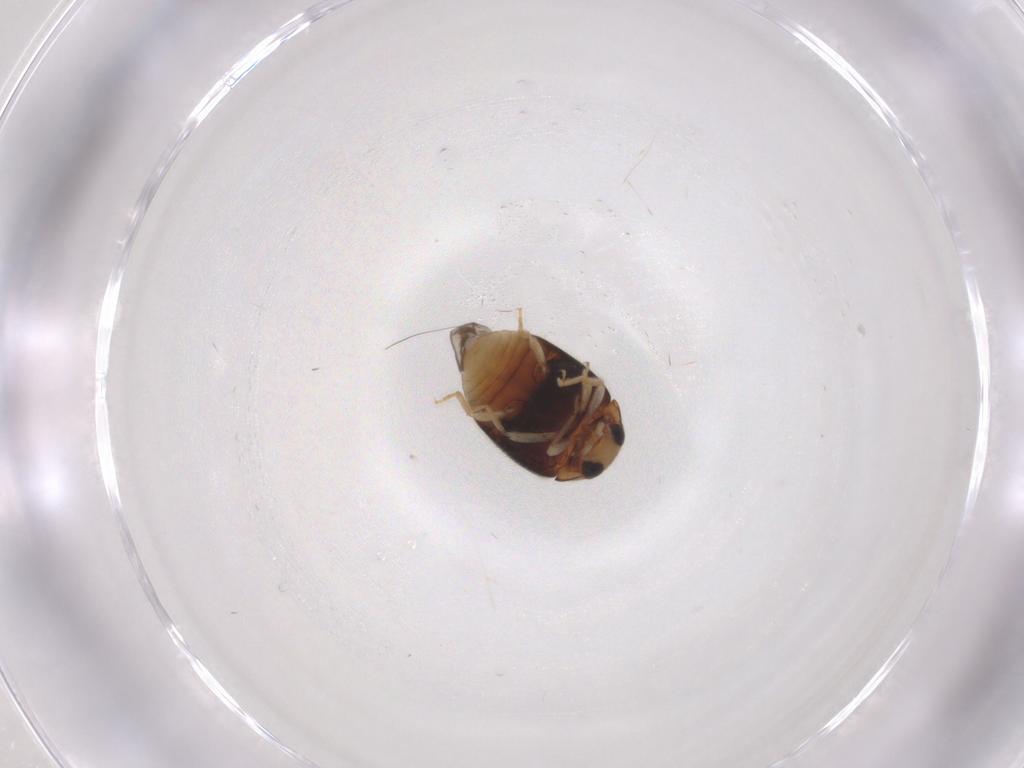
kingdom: Animalia
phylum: Arthropoda
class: Insecta
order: Coleoptera
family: Coccinellidae
